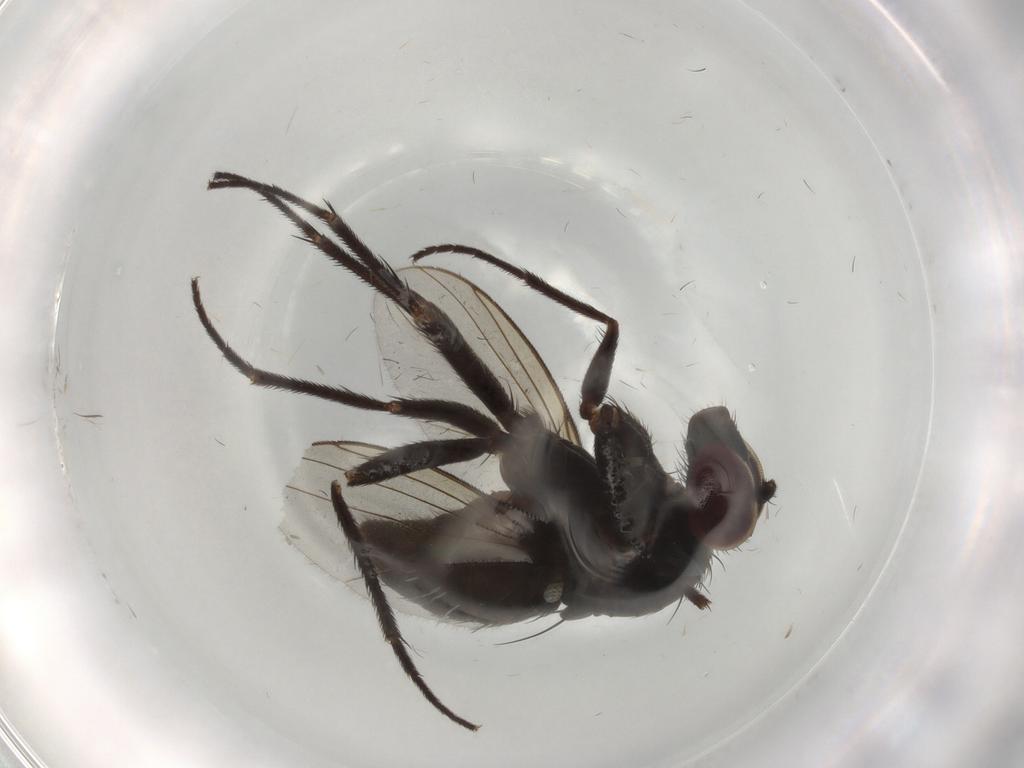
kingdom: Animalia
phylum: Arthropoda
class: Insecta
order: Diptera
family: Dolichopodidae
